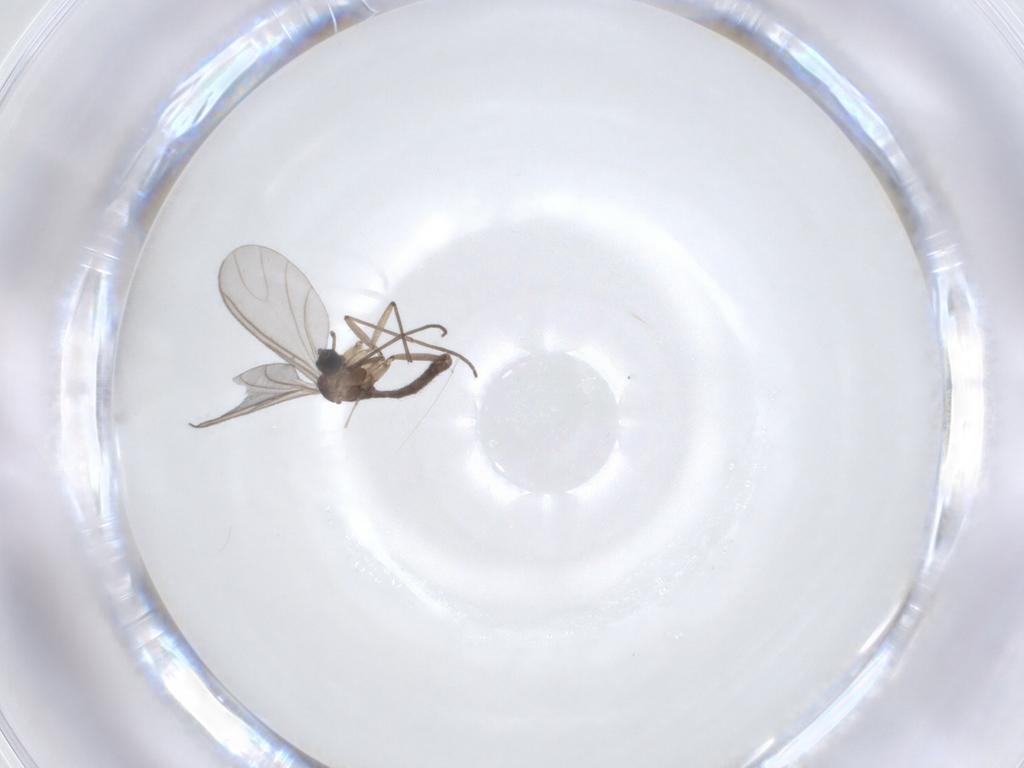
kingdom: Animalia
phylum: Arthropoda
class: Insecta
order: Diptera
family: Sciaridae
